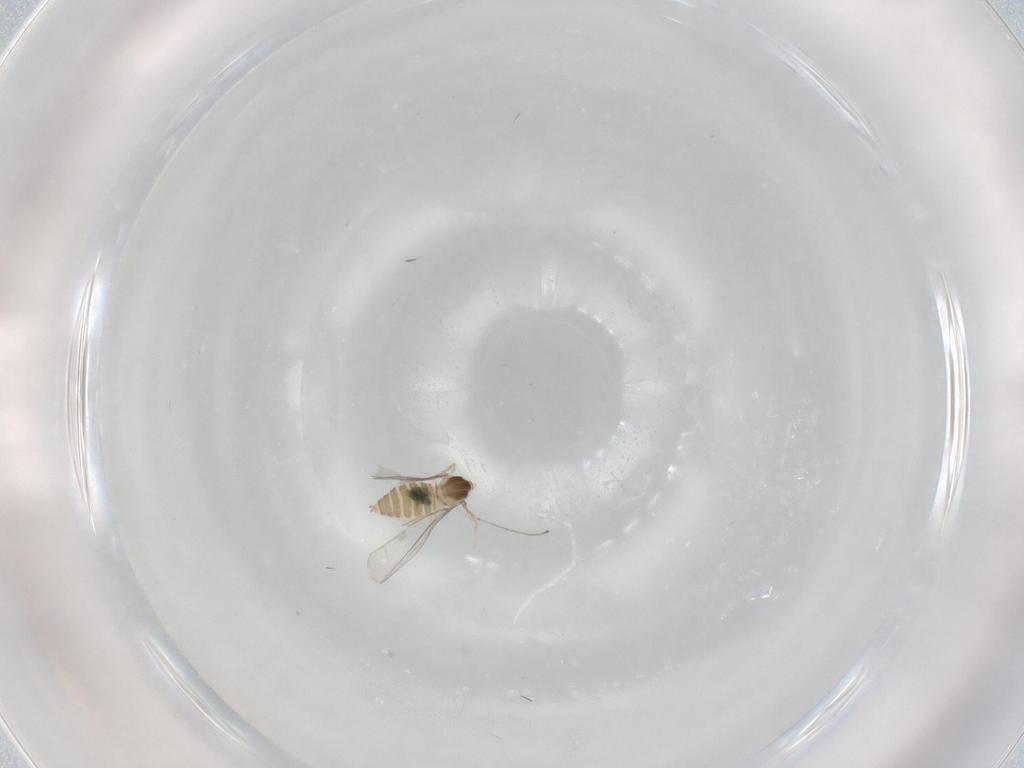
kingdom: Animalia
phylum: Arthropoda
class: Insecta
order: Diptera
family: Cecidomyiidae
